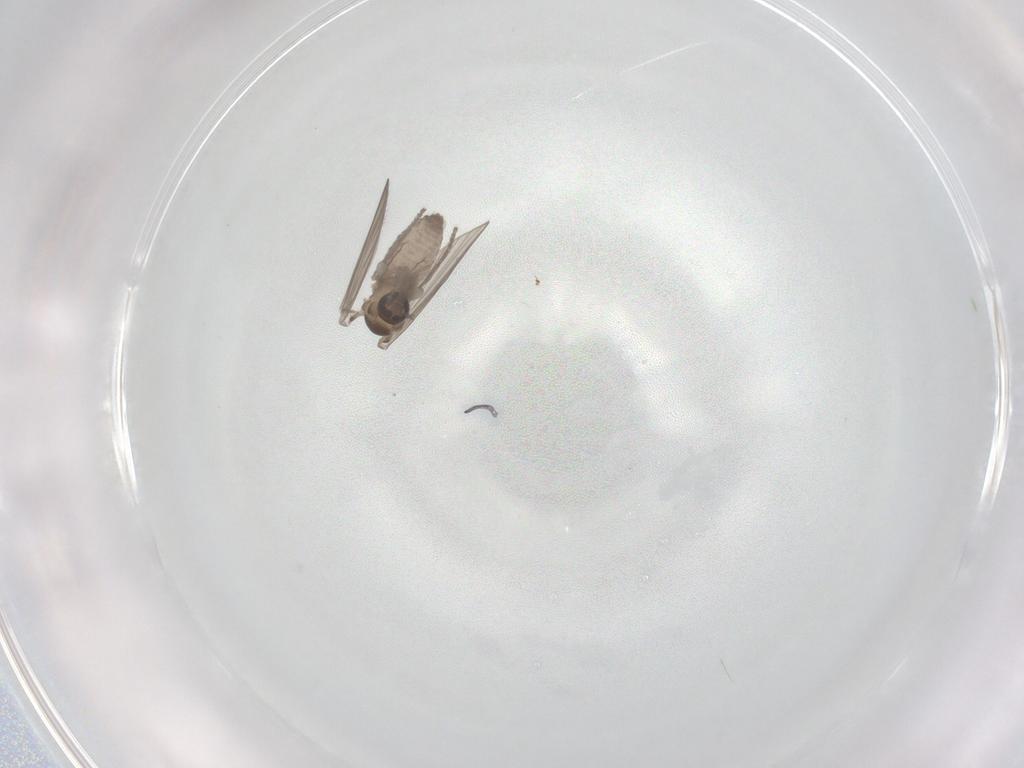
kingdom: Animalia
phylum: Arthropoda
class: Insecta
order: Diptera
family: Psychodidae
